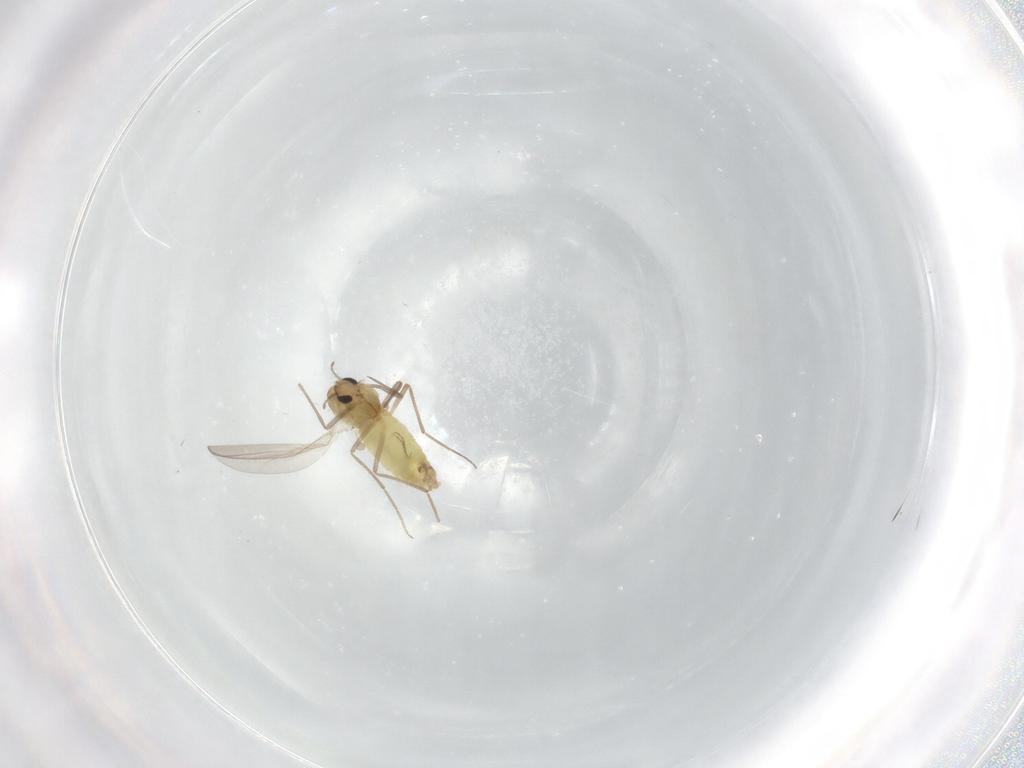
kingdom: Animalia
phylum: Arthropoda
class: Insecta
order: Diptera
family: Chironomidae
